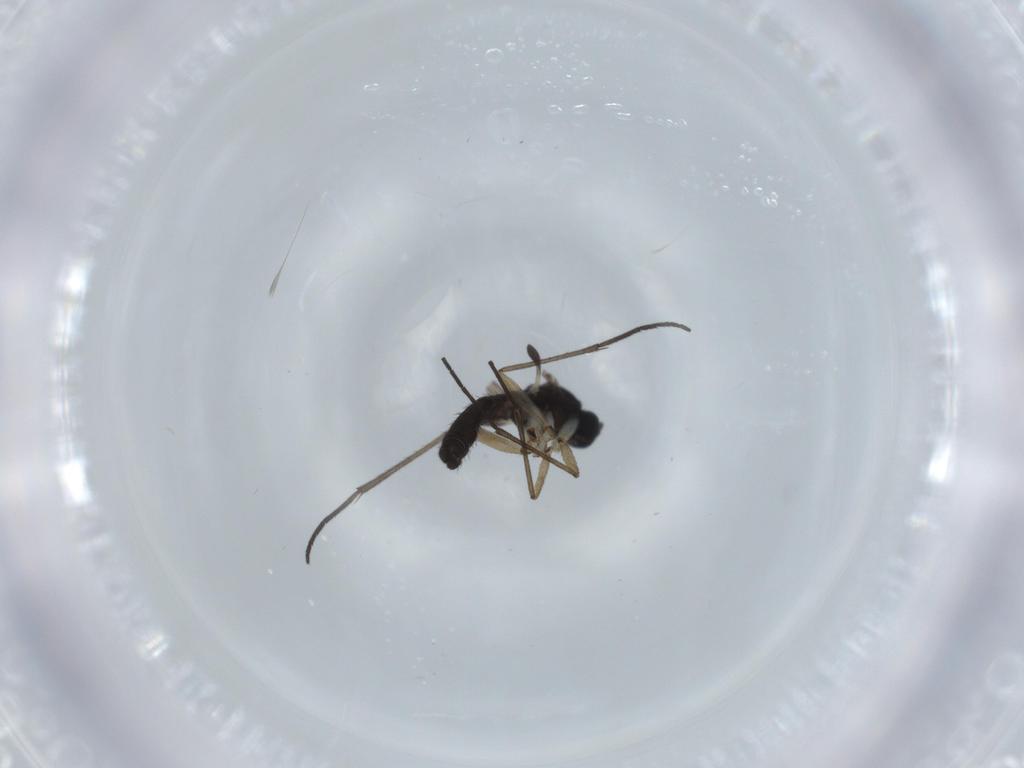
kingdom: Animalia
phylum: Arthropoda
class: Insecta
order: Diptera
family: Sciaridae
